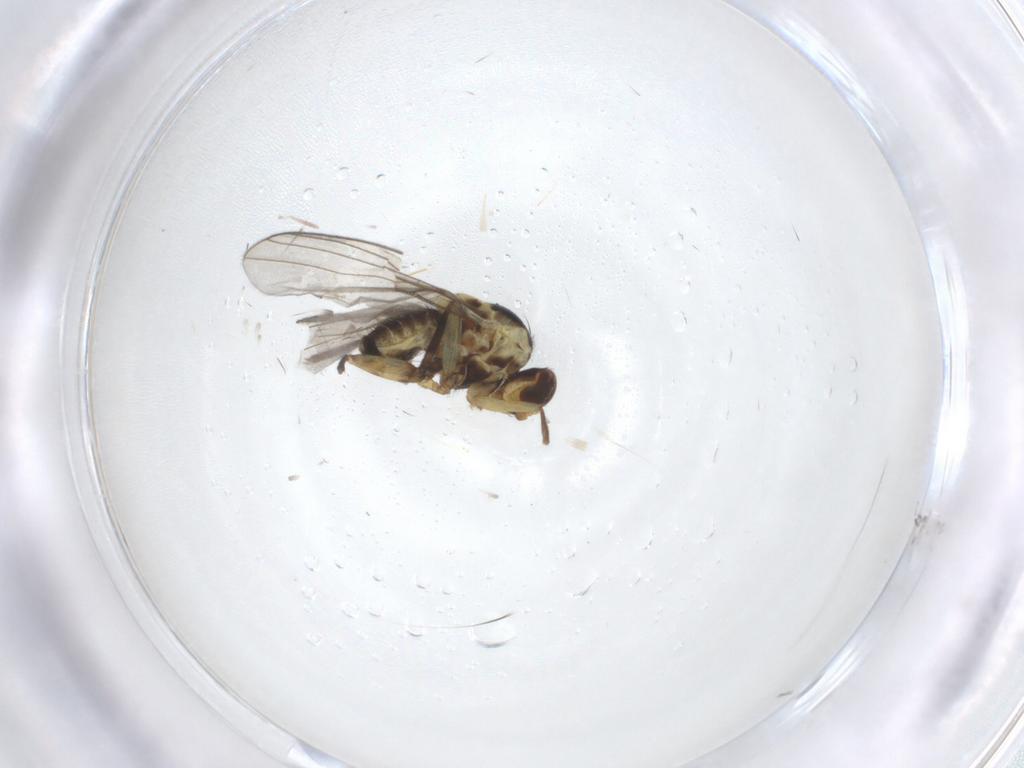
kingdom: Animalia
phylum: Arthropoda
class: Insecta
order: Diptera
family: Agromyzidae
